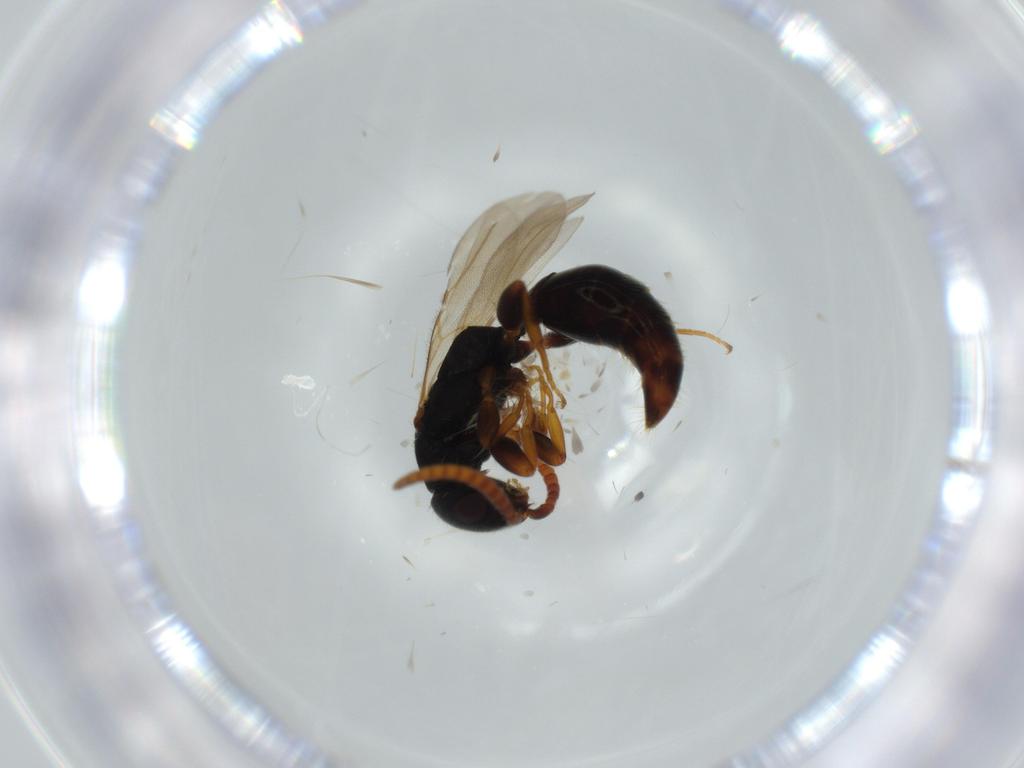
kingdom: Animalia
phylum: Arthropoda
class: Insecta
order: Hymenoptera
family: Bethylidae
